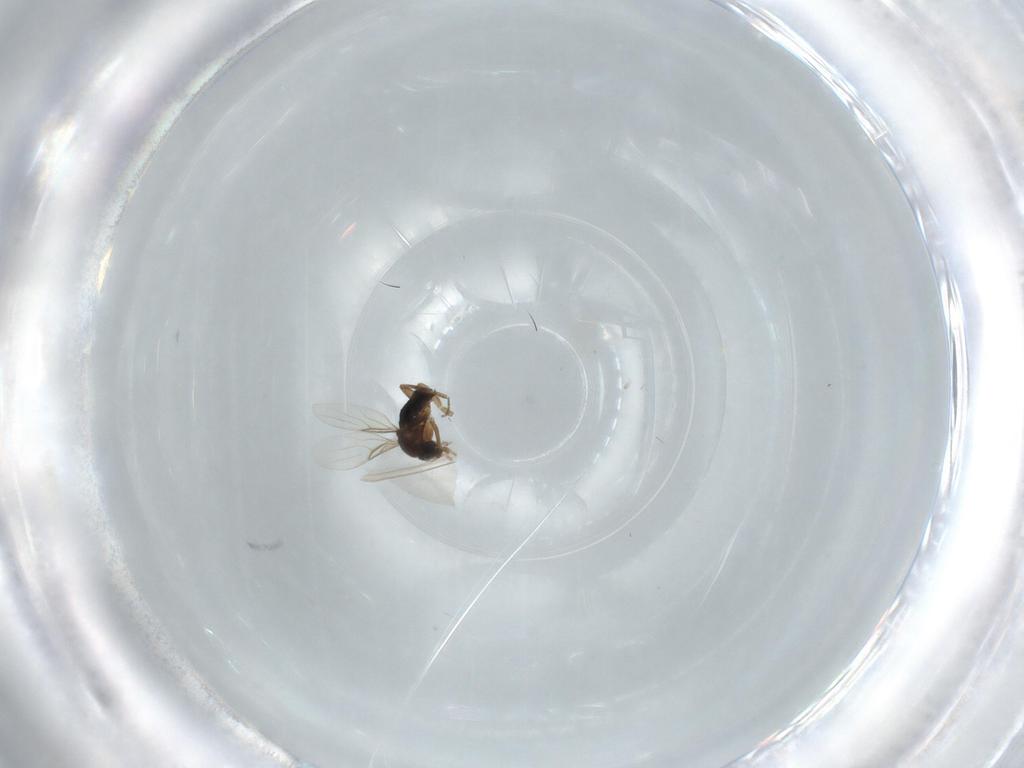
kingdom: Animalia
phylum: Arthropoda
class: Insecta
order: Diptera
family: Phoridae
